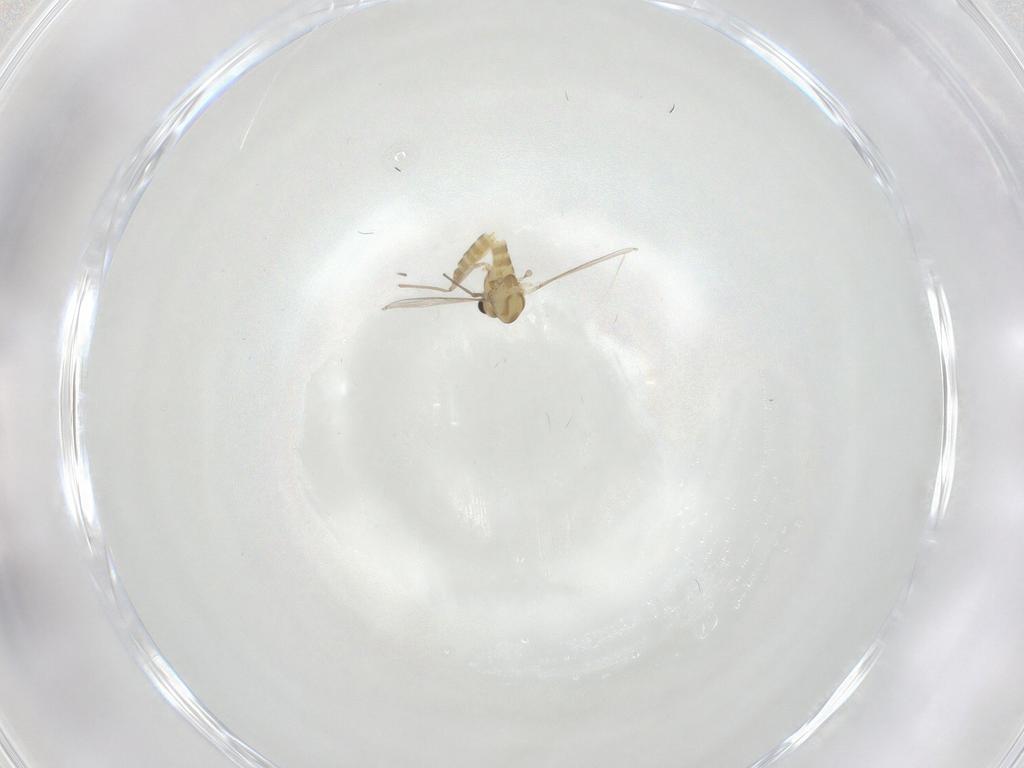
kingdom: Animalia
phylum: Arthropoda
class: Insecta
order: Diptera
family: Chironomidae
